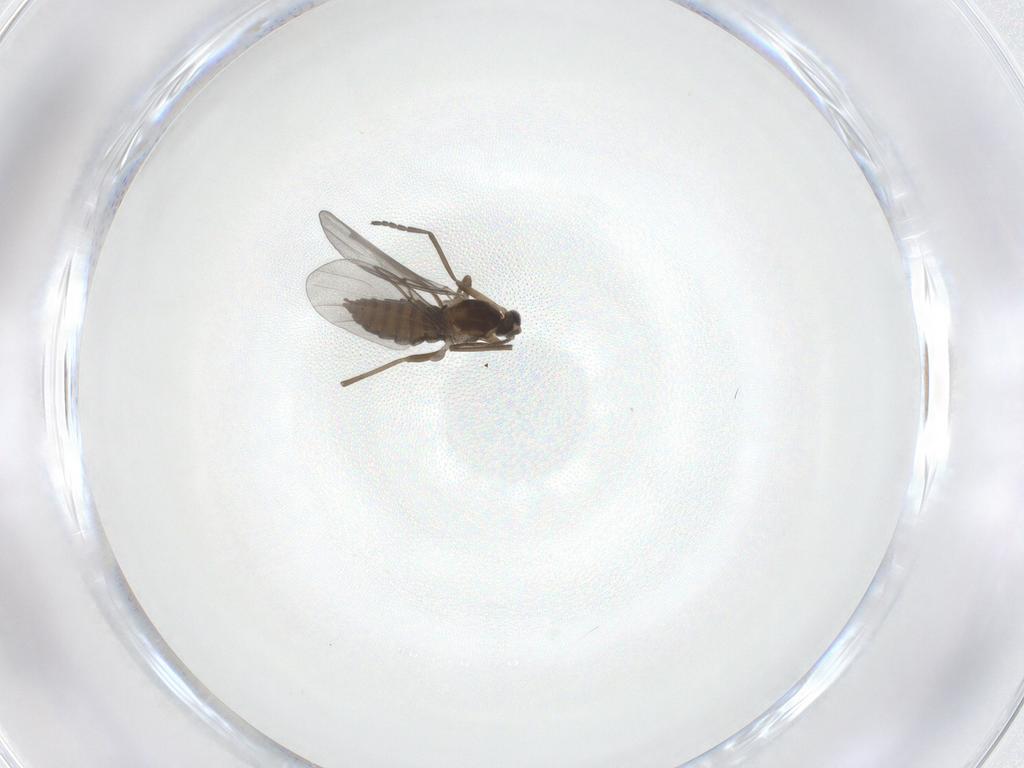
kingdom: Animalia
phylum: Arthropoda
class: Insecta
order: Diptera
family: Cecidomyiidae
